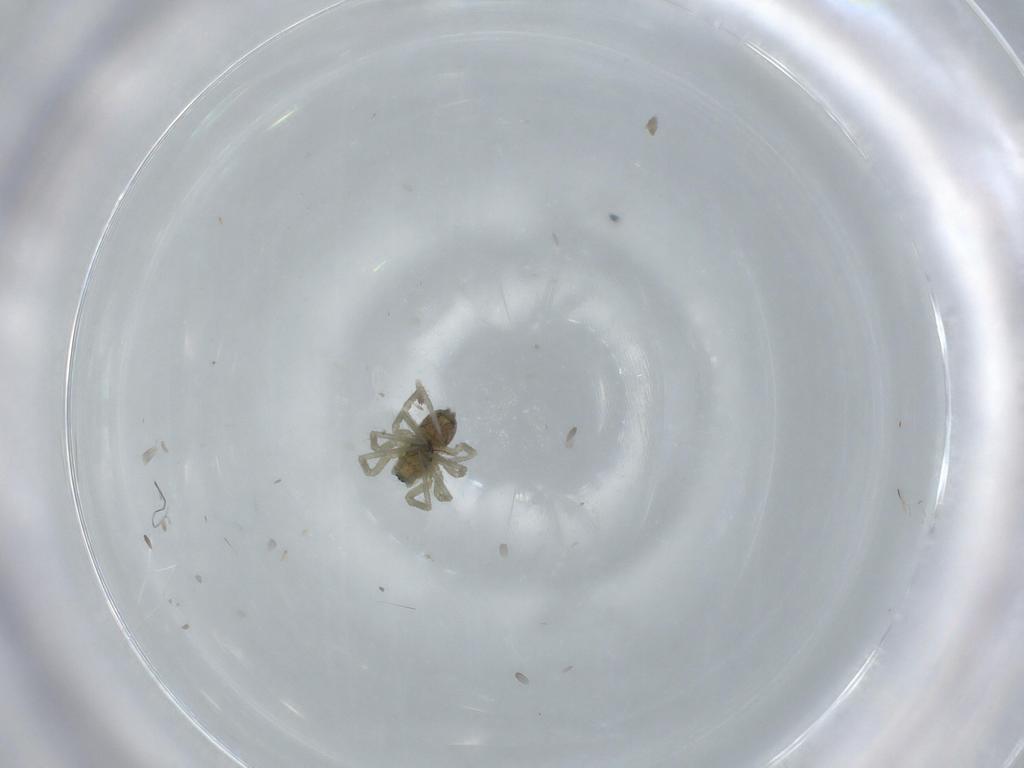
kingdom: Animalia
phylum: Arthropoda
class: Arachnida
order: Araneae
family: Linyphiidae
